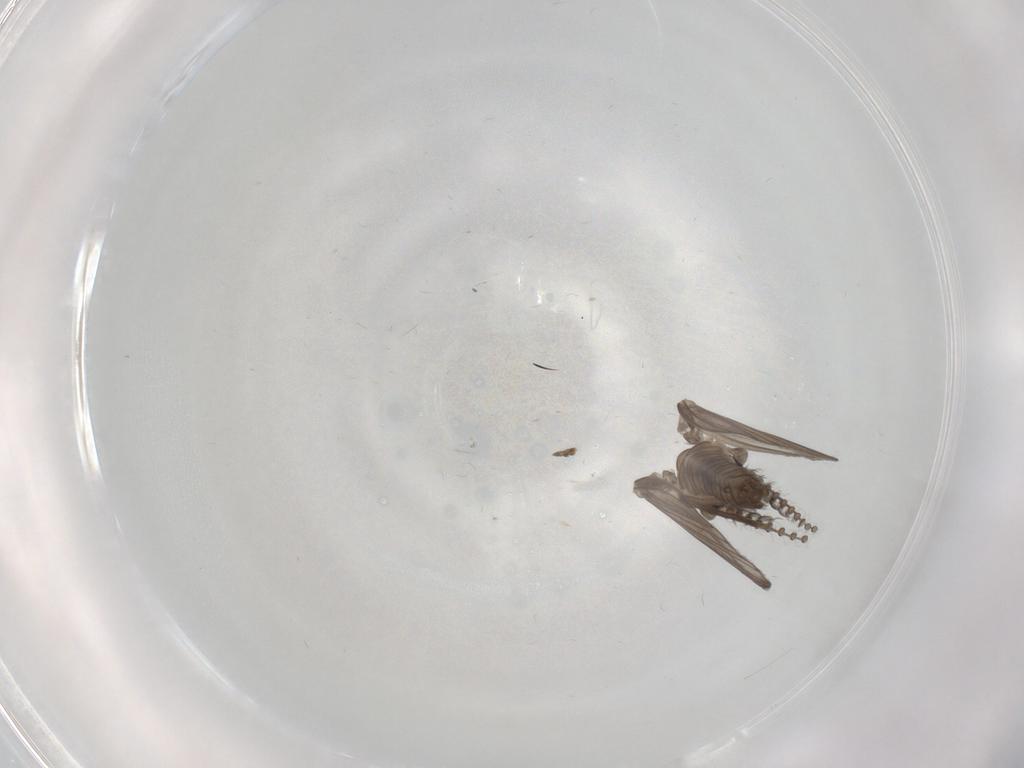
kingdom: Animalia
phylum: Arthropoda
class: Insecta
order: Diptera
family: Psychodidae
